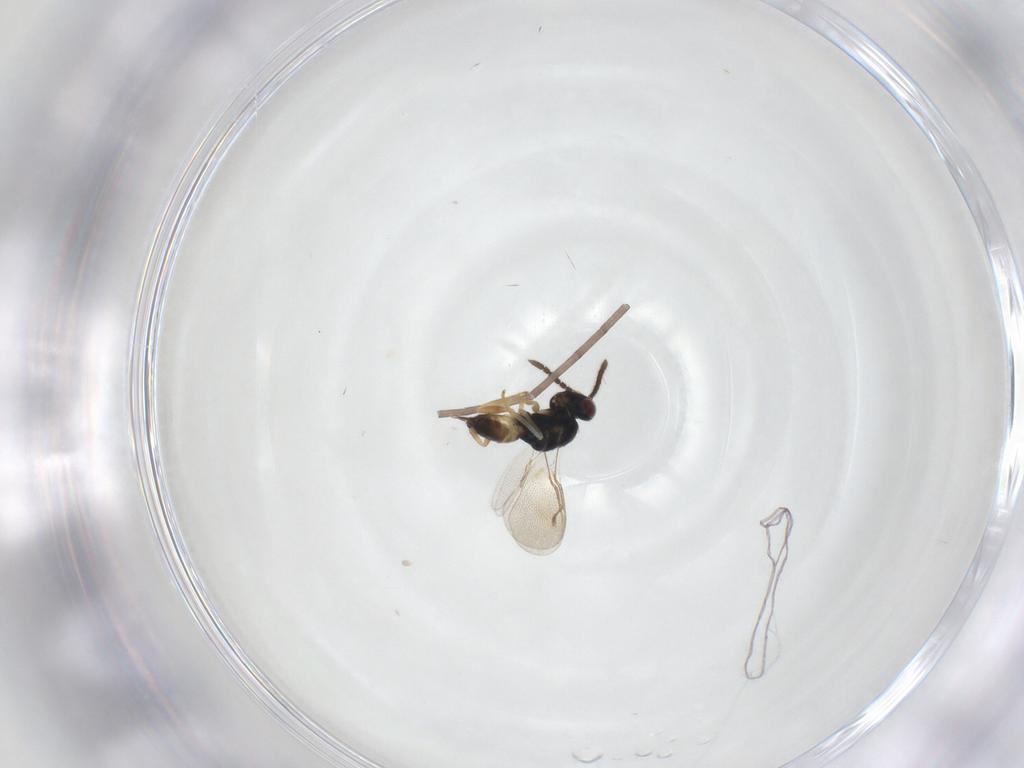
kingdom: Animalia
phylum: Arthropoda
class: Insecta
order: Hymenoptera
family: Pteromalidae
